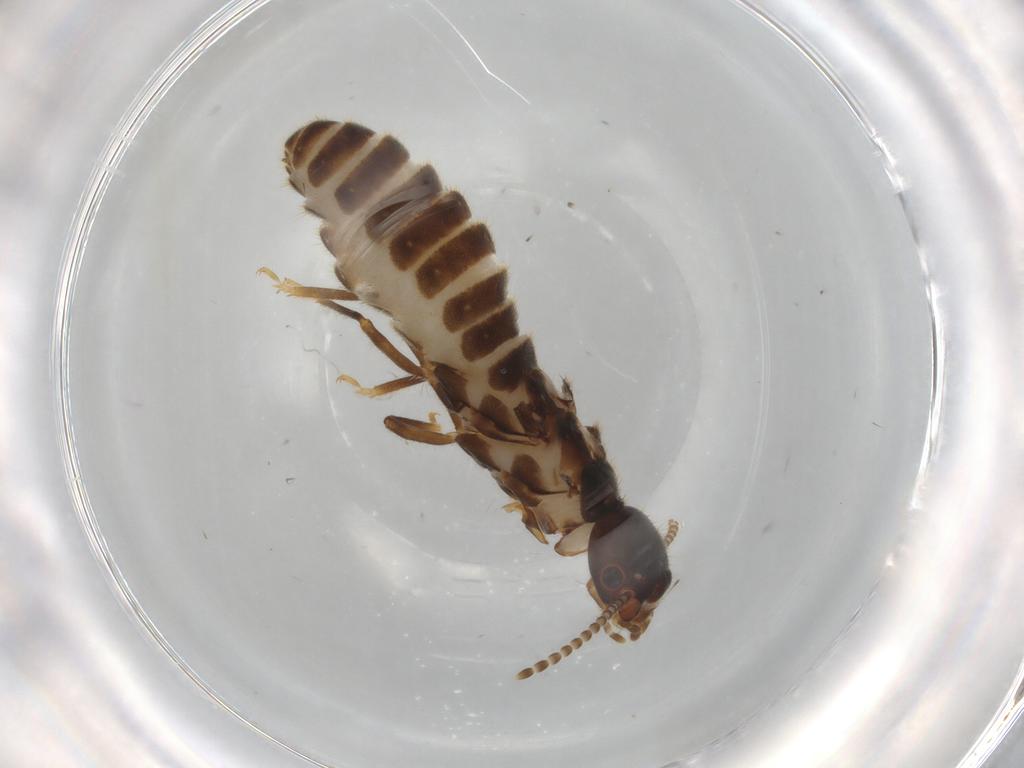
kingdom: Animalia
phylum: Arthropoda
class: Insecta
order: Blattodea
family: Termitidae
